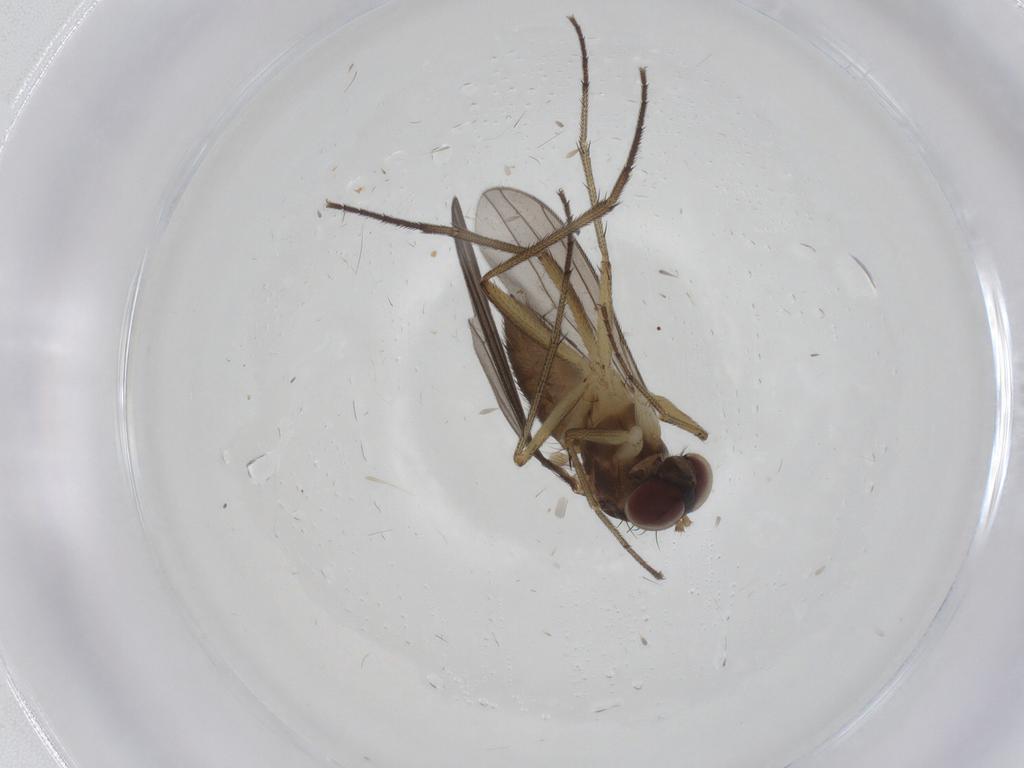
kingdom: Animalia
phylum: Arthropoda
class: Insecta
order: Diptera
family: Dolichopodidae
